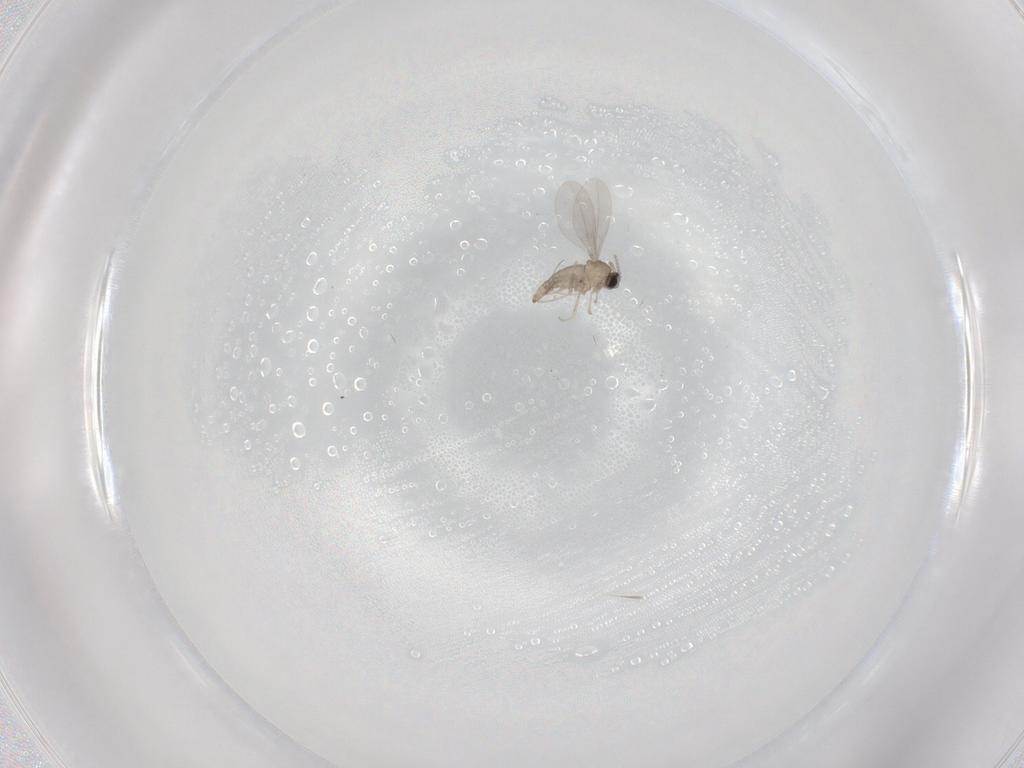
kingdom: Animalia
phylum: Arthropoda
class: Insecta
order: Diptera
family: Cecidomyiidae
